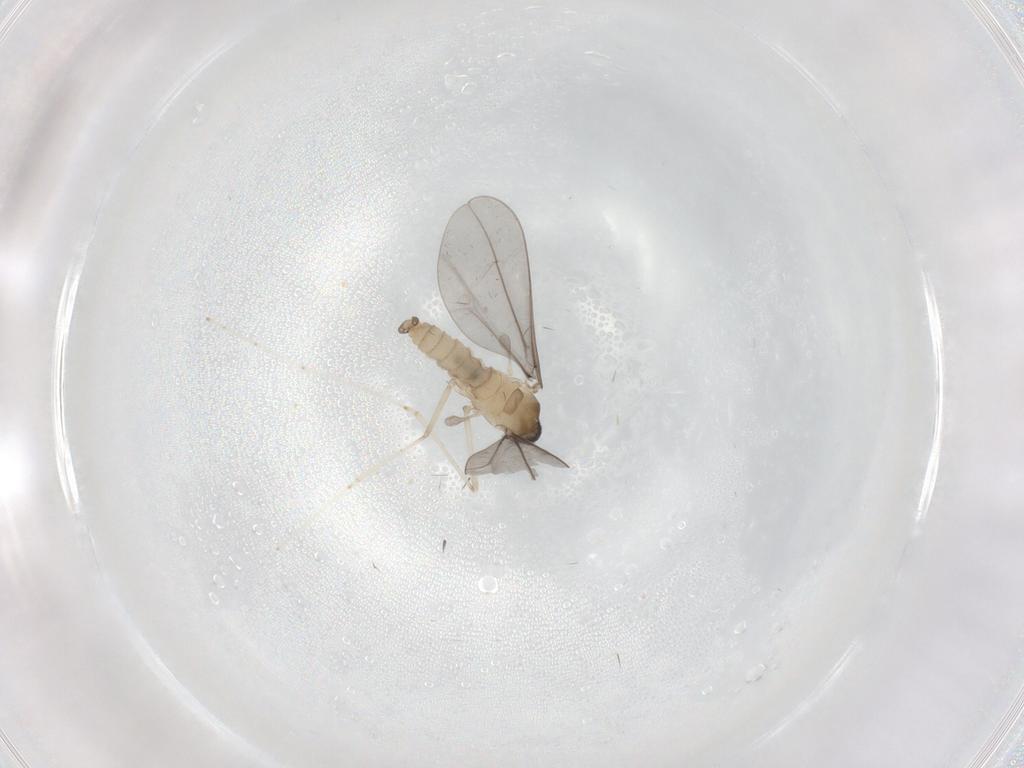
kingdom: Animalia
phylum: Arthropoda
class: Insecta
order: Diptera
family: Cecidomyiidae
